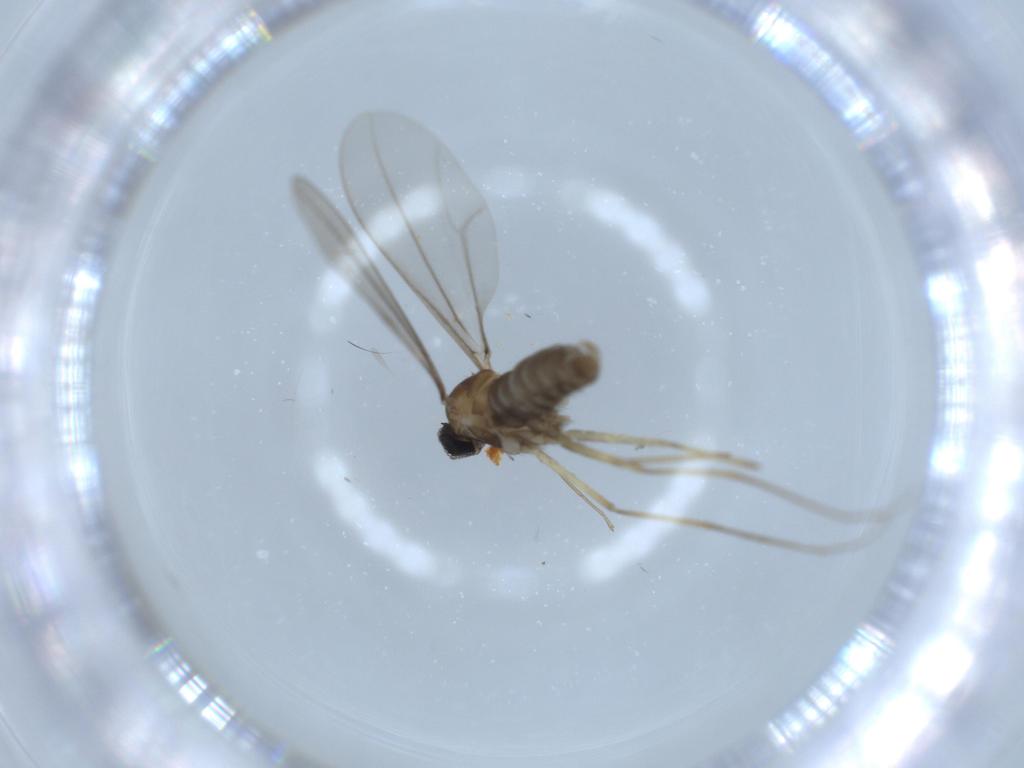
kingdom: Animalia
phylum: Arthropoda
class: Insecta
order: Diptera
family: Cecidomyiidae
